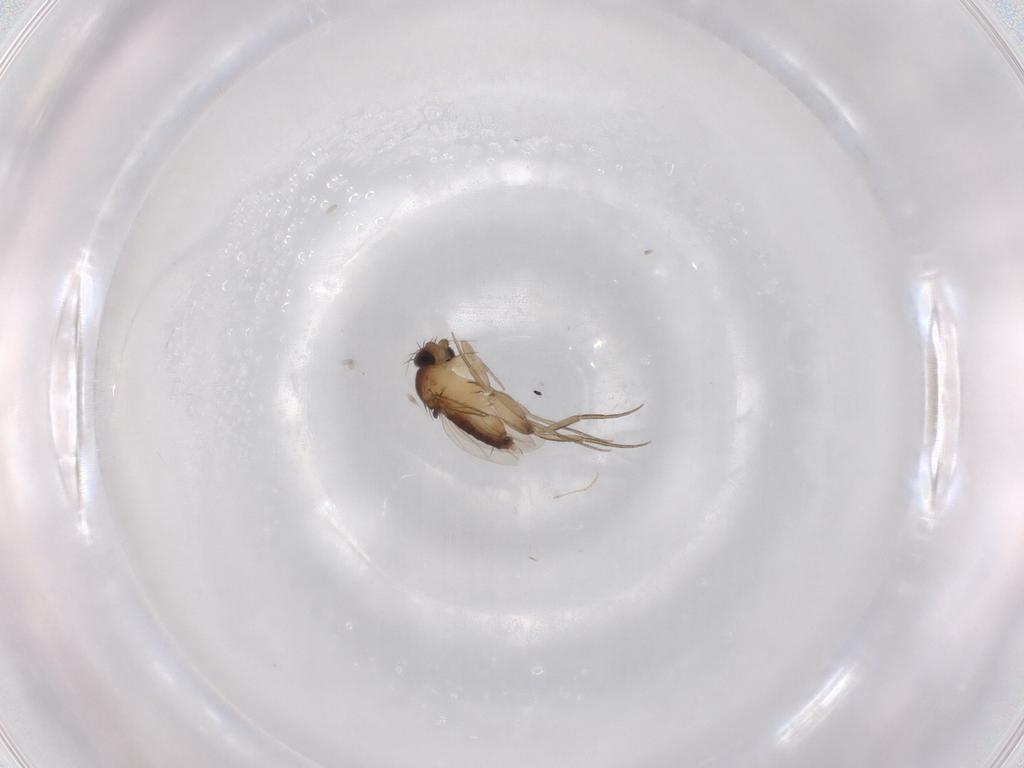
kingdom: Animalia
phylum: Arthropoda
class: Insecta
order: Diptera
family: Phoridae
